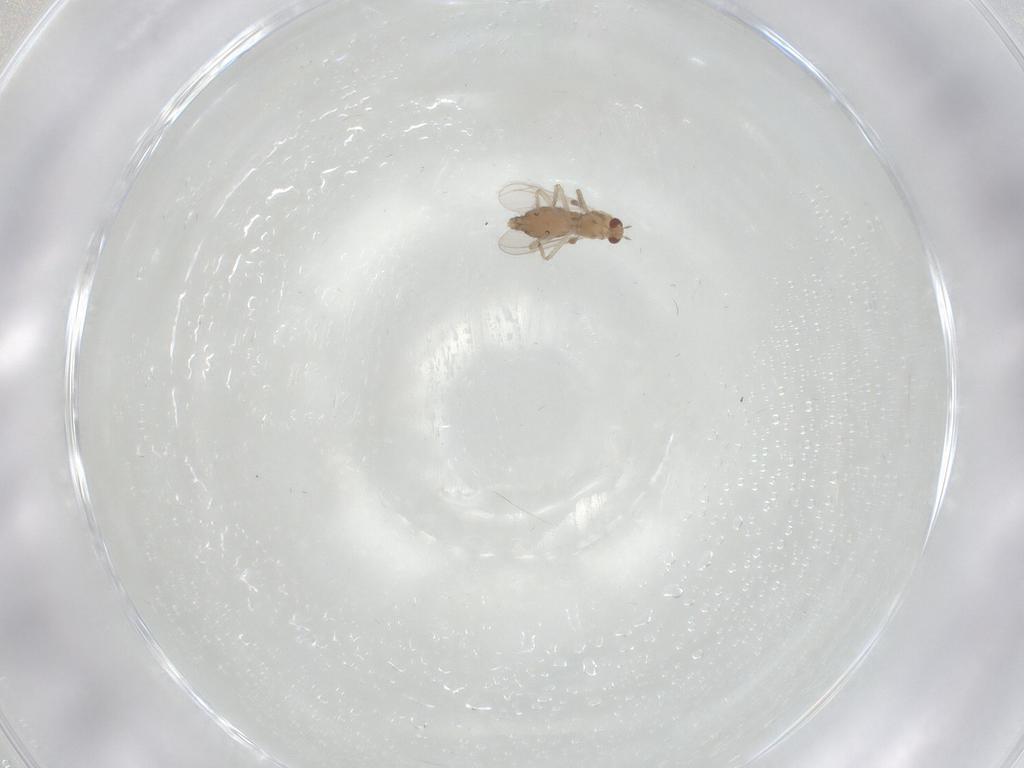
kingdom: Animalia
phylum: Arthropoda
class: Insecta
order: Diptera
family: Chironomidae
